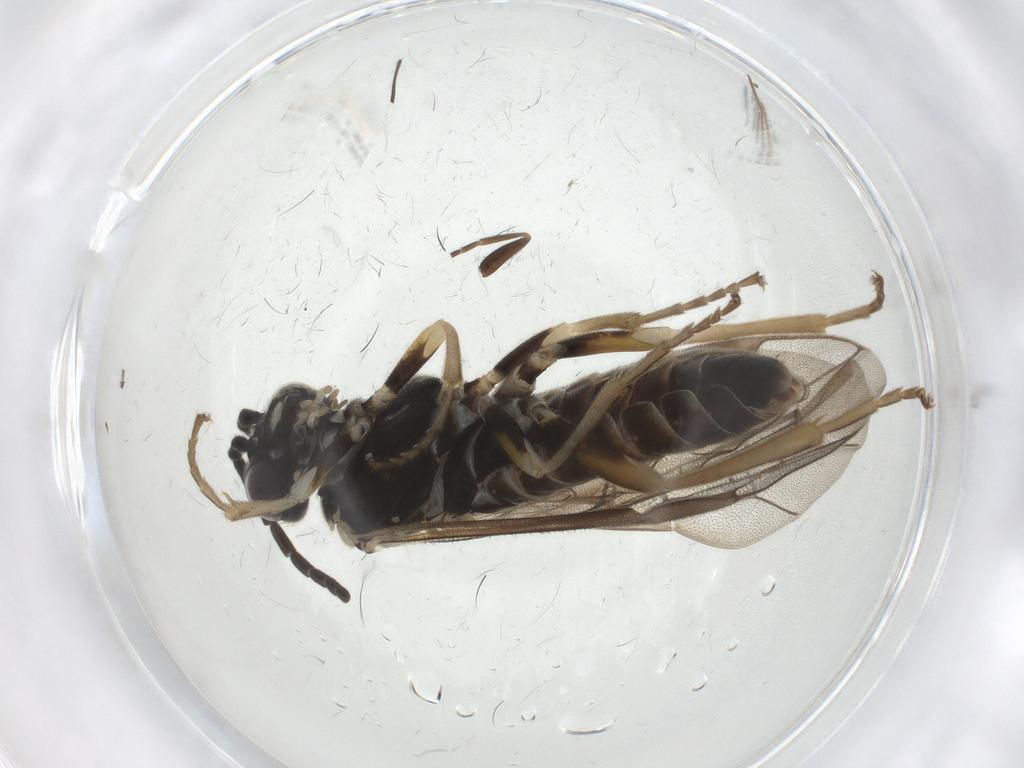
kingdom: Animalia
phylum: Arthropoda
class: Insecta
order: Hymenoptera
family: Tenthredinidae
